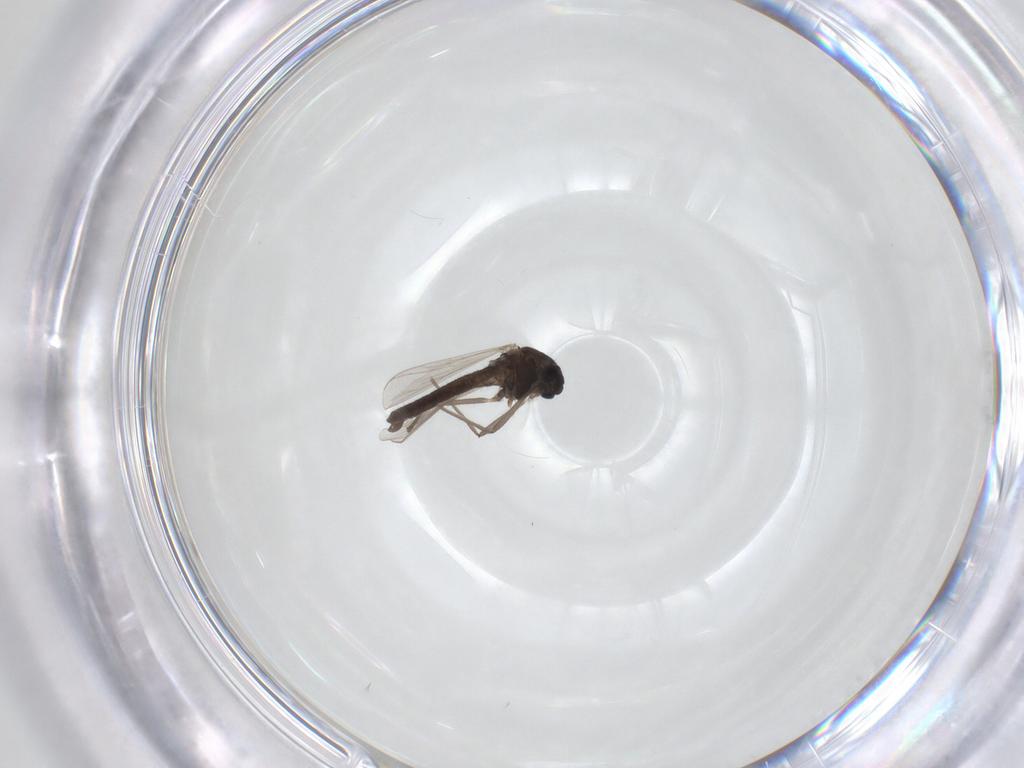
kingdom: Animalia
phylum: Arthropoda
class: Insecta
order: Diptera
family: Chironomidae
